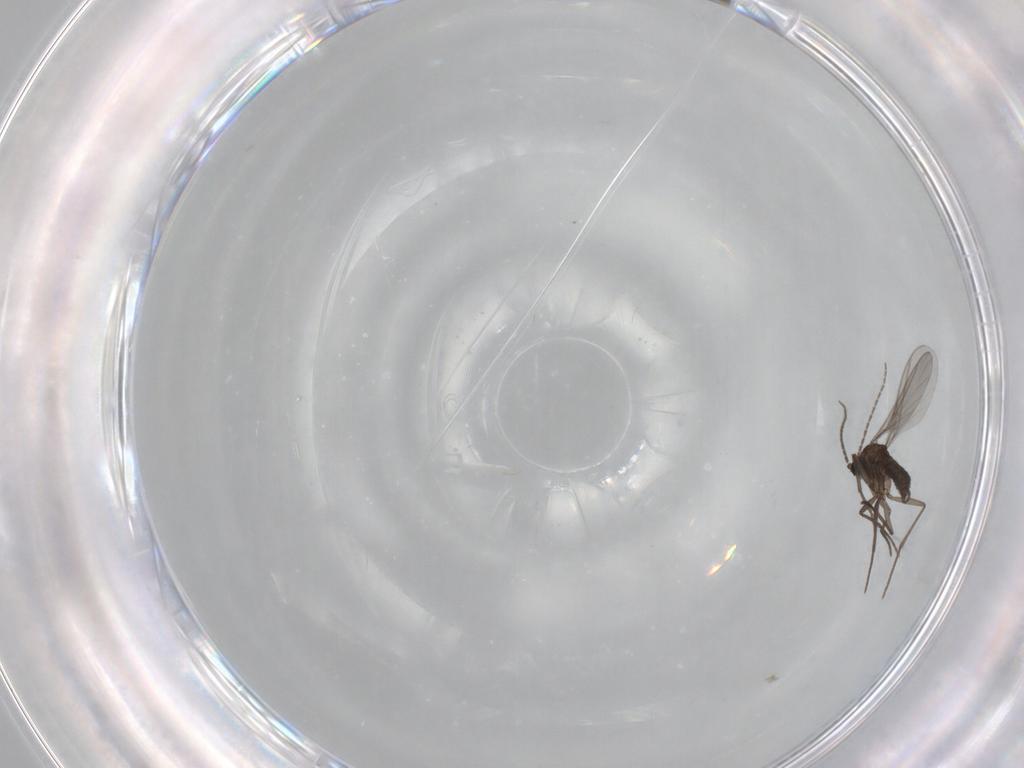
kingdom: Animalia
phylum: Arthropoda
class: Insecta
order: Diptera
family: Sciaridae
